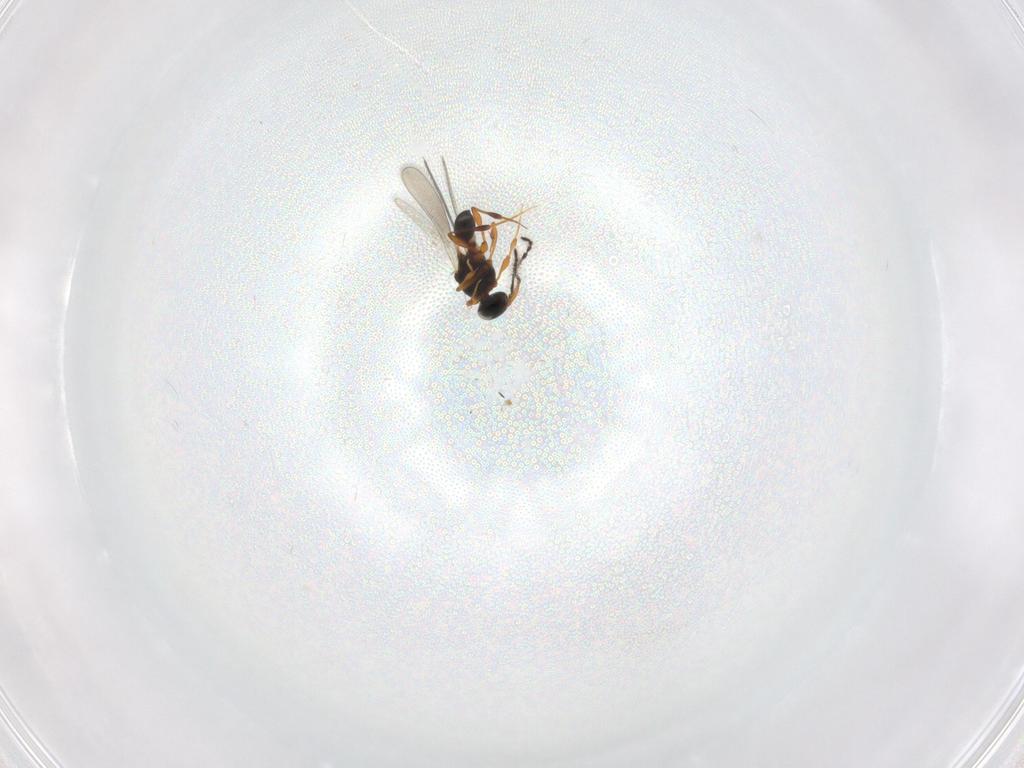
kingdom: Animalia
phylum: Arthropoda
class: Insecta
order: Hymenoptera
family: Platygastridae
